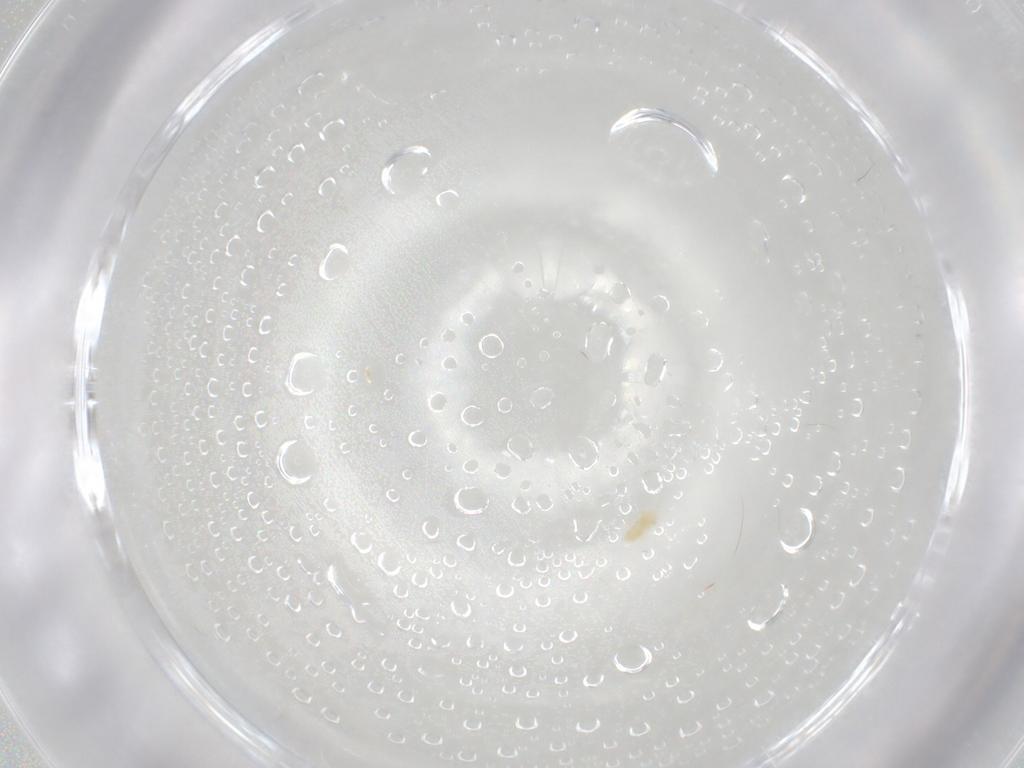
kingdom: Animalia
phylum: Arthropoda
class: Arachnida
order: Trombidiformes
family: Eupodidae
